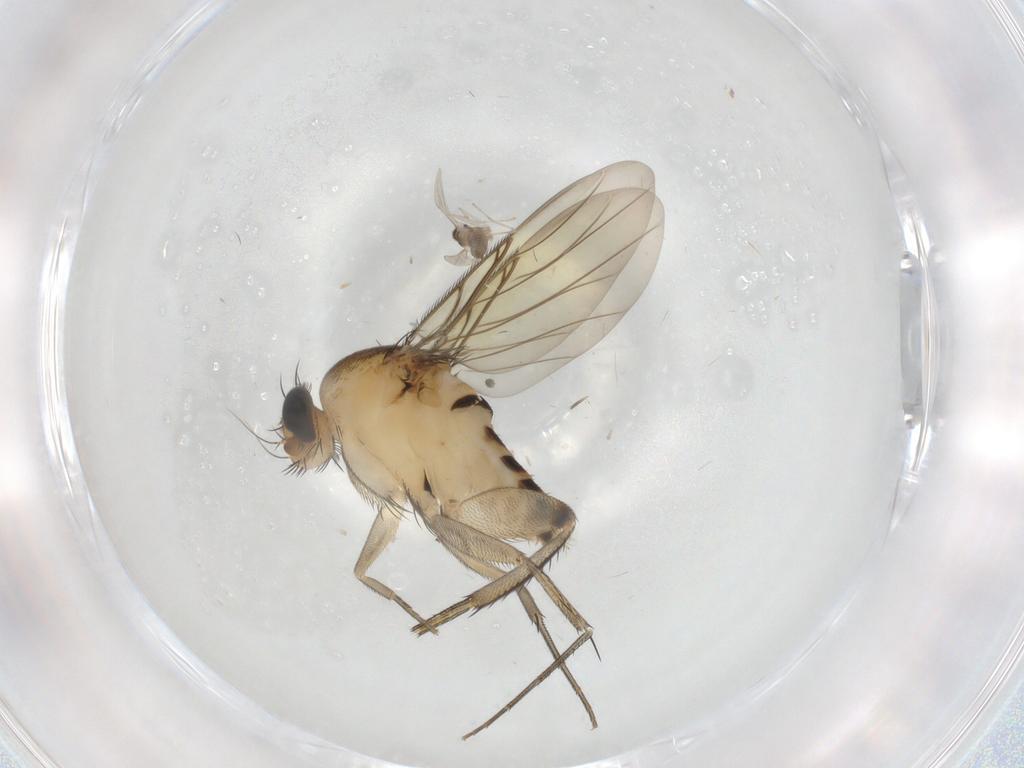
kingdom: Animalia
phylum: Arthropoda
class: Insecta
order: Diptera
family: Phoridae
